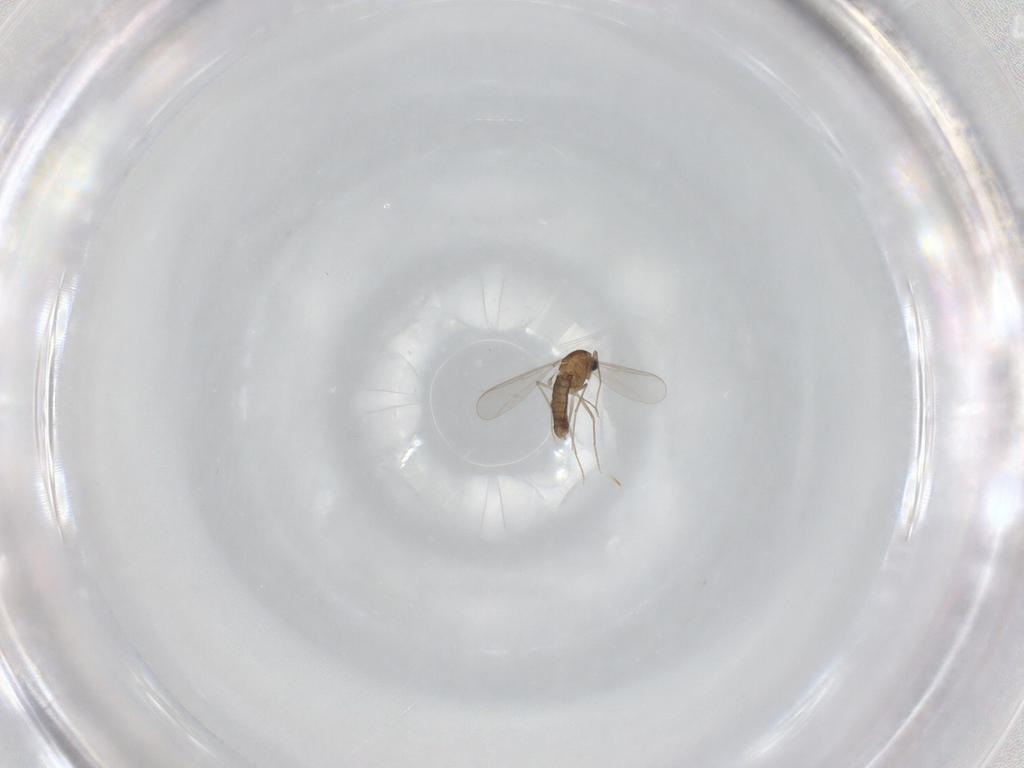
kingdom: Animalia
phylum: Arthropoda
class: Insecta
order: Diptera
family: Chironomidae
